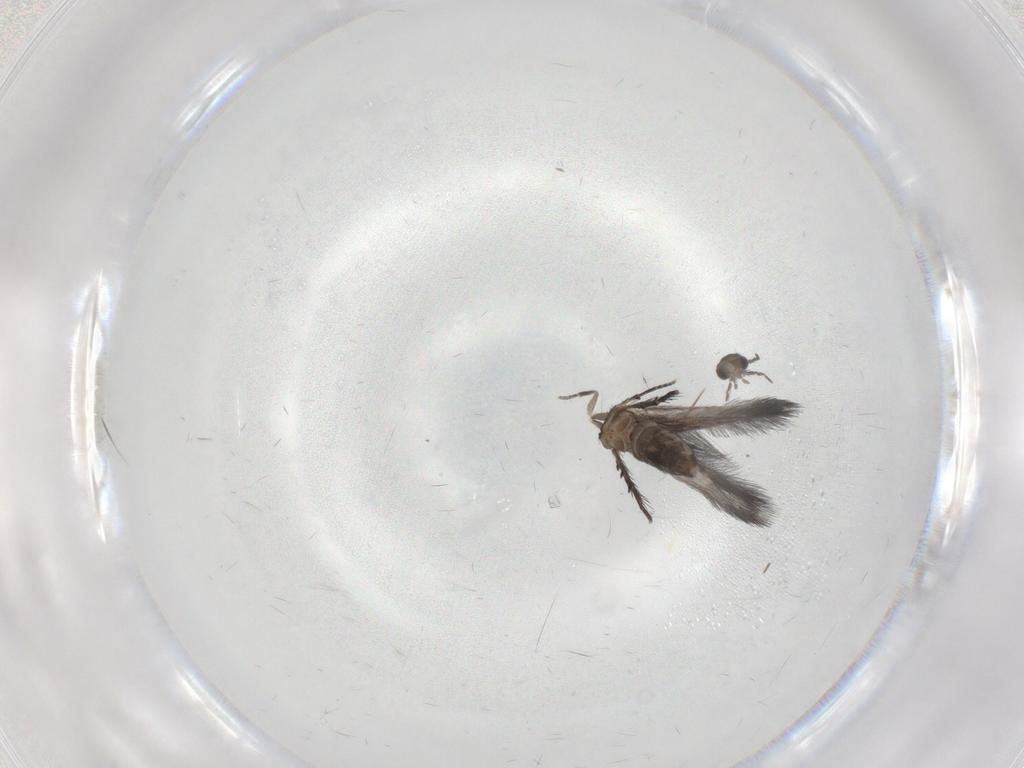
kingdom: Animalia
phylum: Arthropoda
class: Insecta
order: Trichoptera
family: Hydroptilidae
